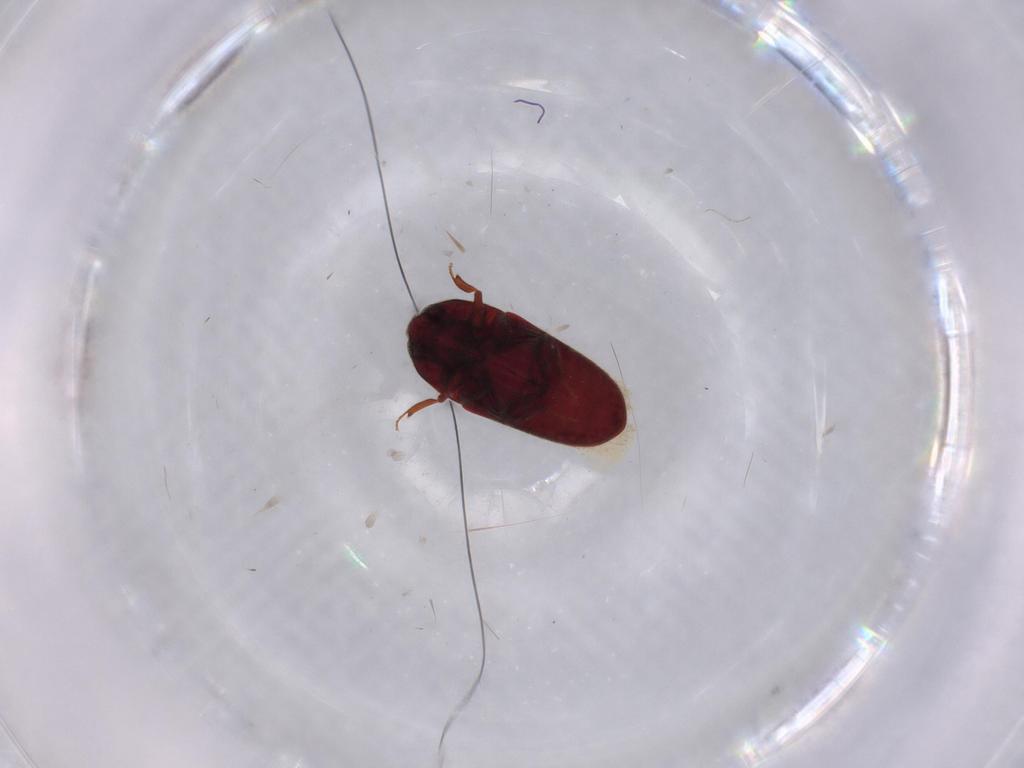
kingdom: Animalia
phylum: Arthropoda
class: Insecta
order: Coleoptera
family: Throscidae
